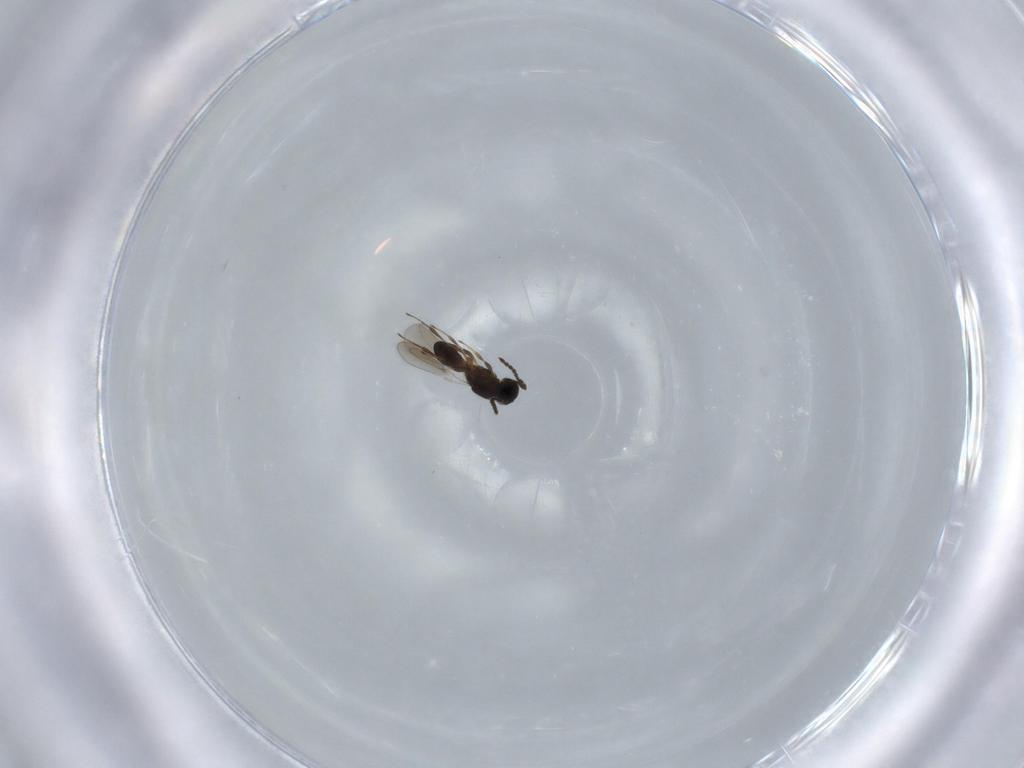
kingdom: Animalia
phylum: Arthropoda
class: Insecta
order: Hymenoptera
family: Platygastridae
